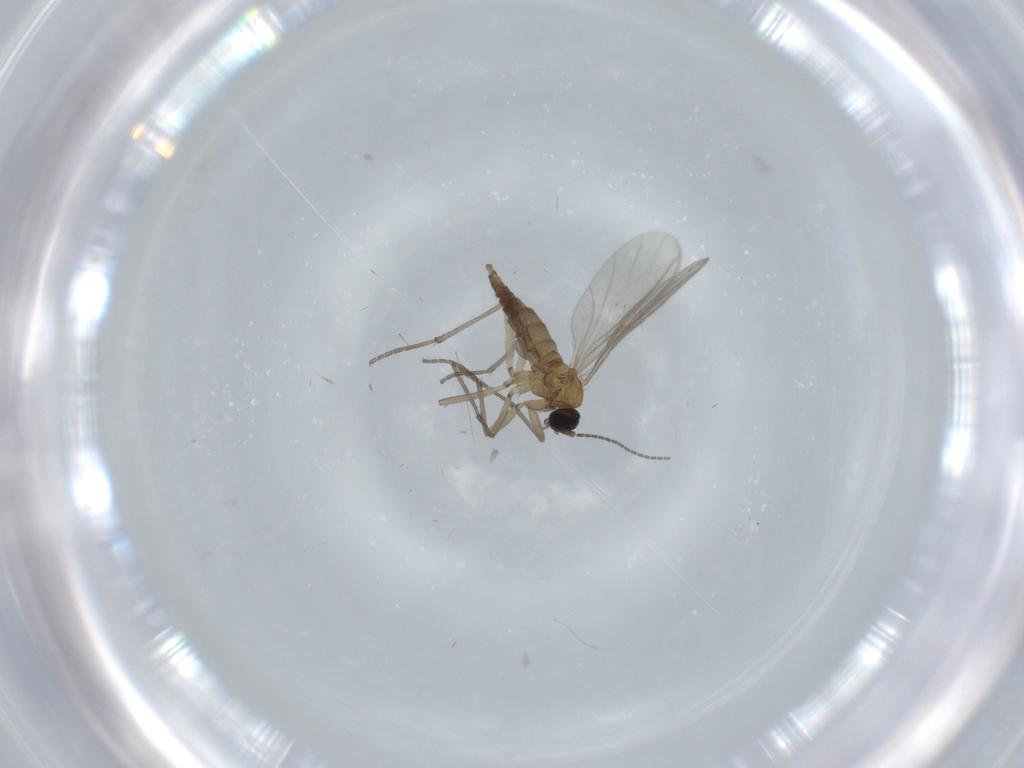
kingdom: Animalia
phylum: Arthropoda
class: Insecta
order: Diptera
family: Sciaridae
